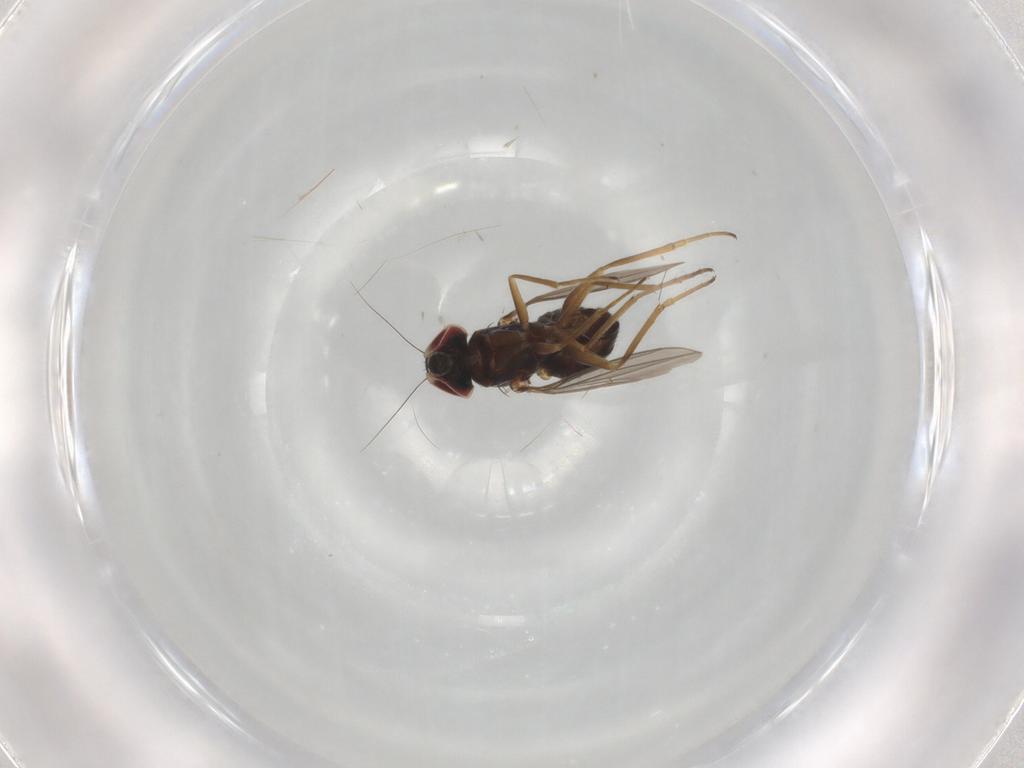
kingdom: Animalia
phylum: Arthropoda
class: Insecta
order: Diptera
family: Dolichopodidae
